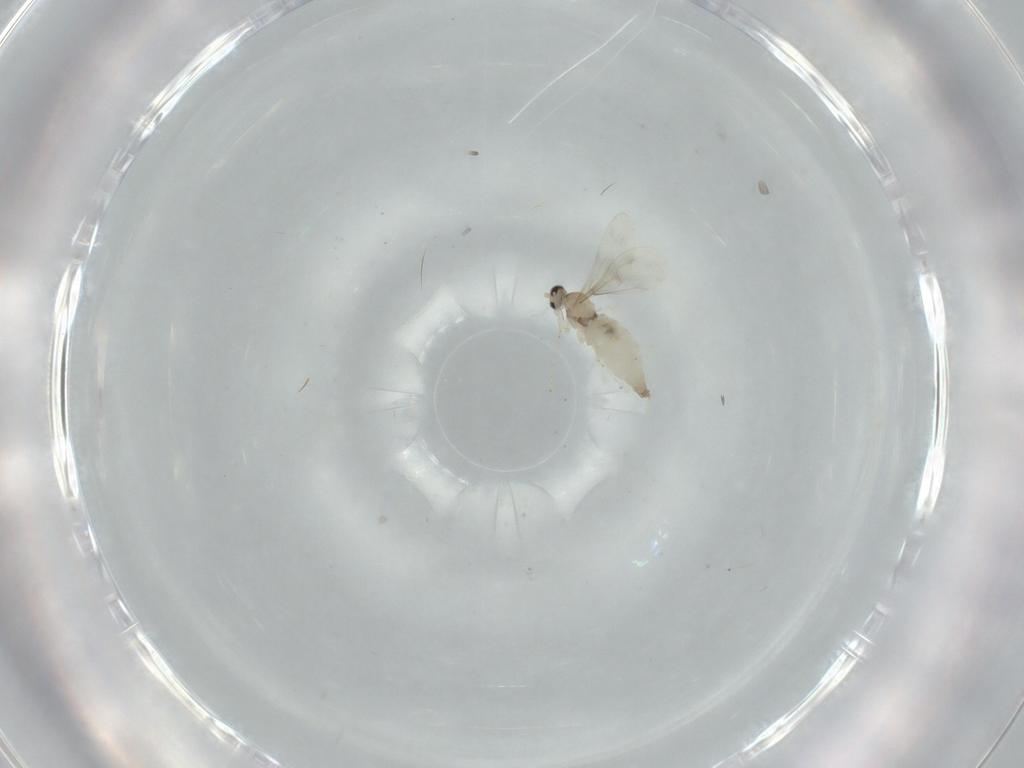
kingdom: Animalia
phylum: Arthropoda
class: Insecta
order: Diptera
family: Cecidomyiidae
